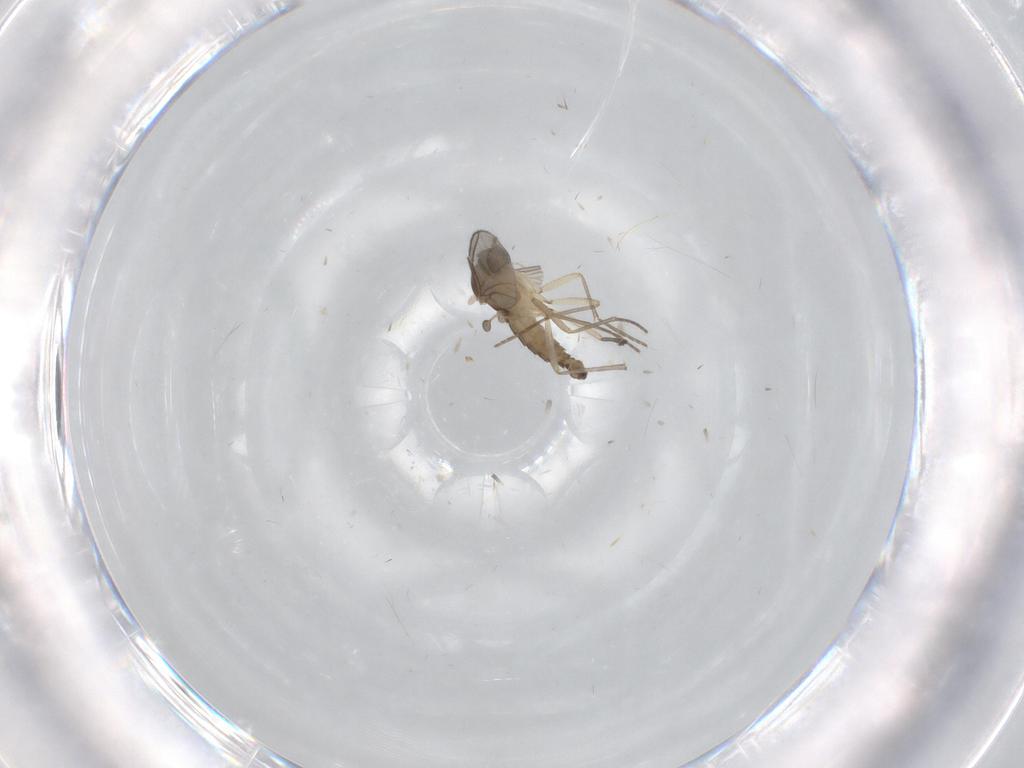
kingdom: Animalia
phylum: Arthropoda
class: Insecta
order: Diptera
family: Sciaridae
